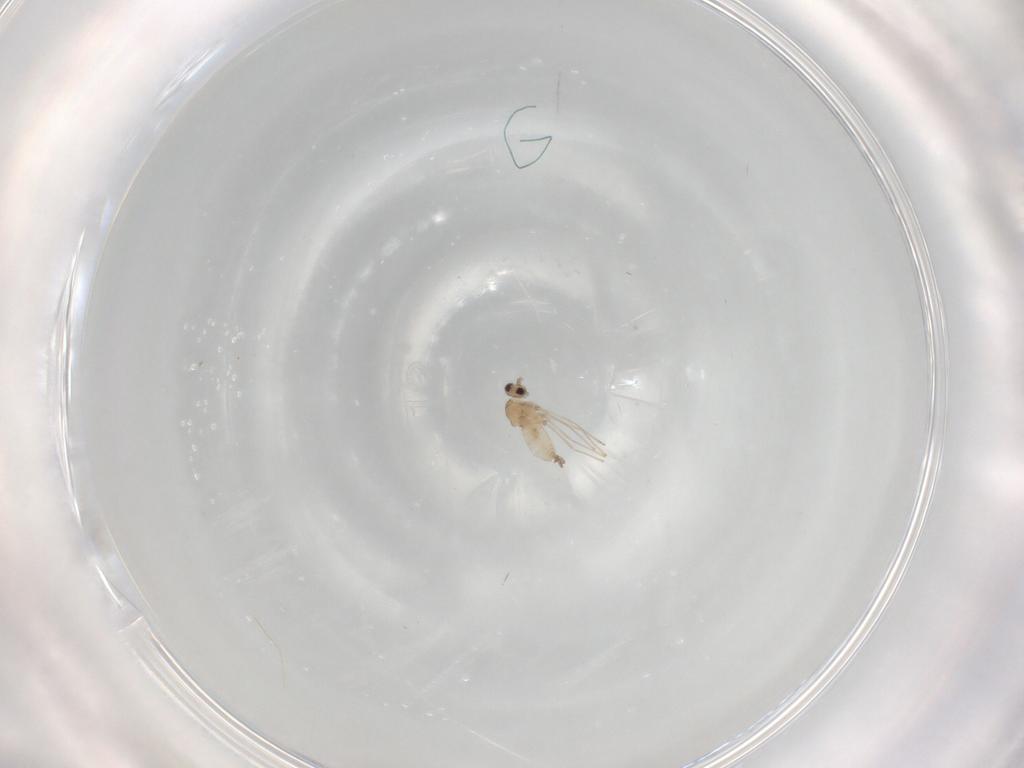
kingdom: Animalia
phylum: Arthropoda
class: Insecta
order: Diptera
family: Cecidomyiidae
